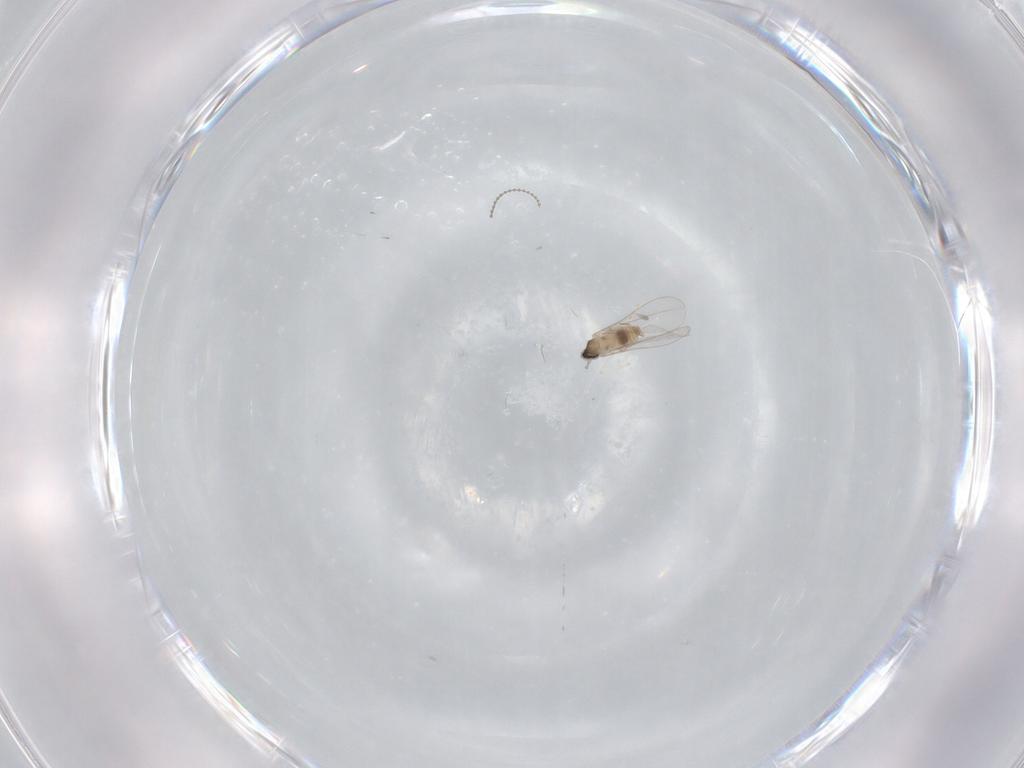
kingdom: Animalia
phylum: Arthropoda
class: Insecta
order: Diptera
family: Cecidomyiidae
